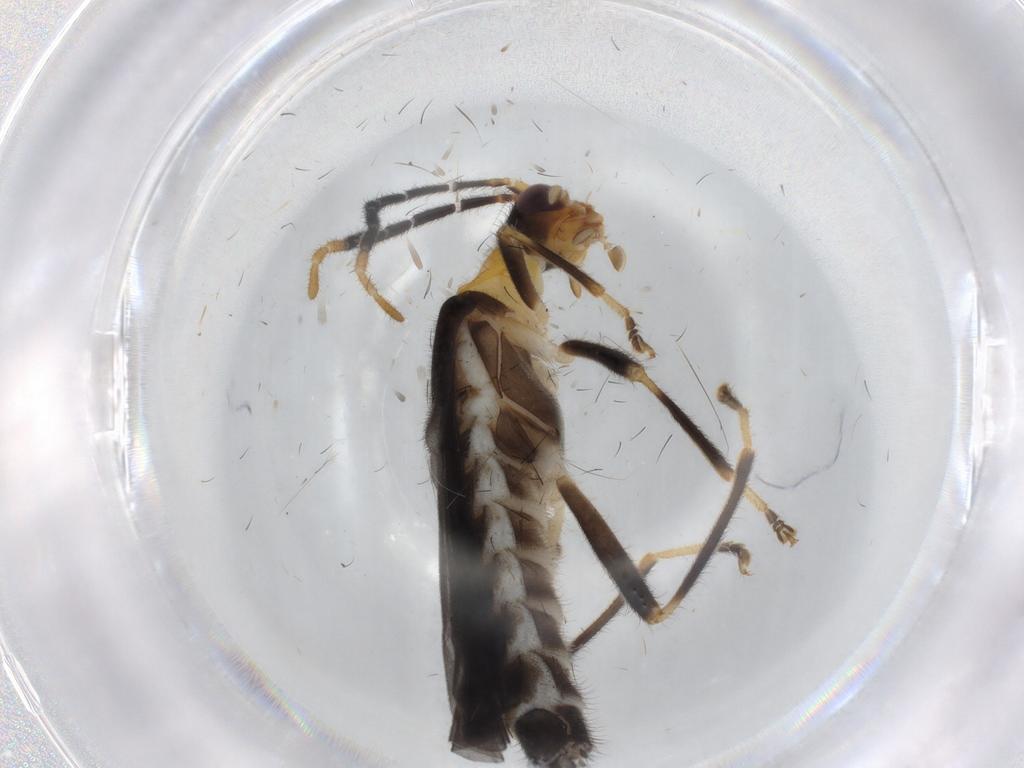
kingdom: Animalia
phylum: Arthropoda
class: Insecta
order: Coleoptera
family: Cantharidae
